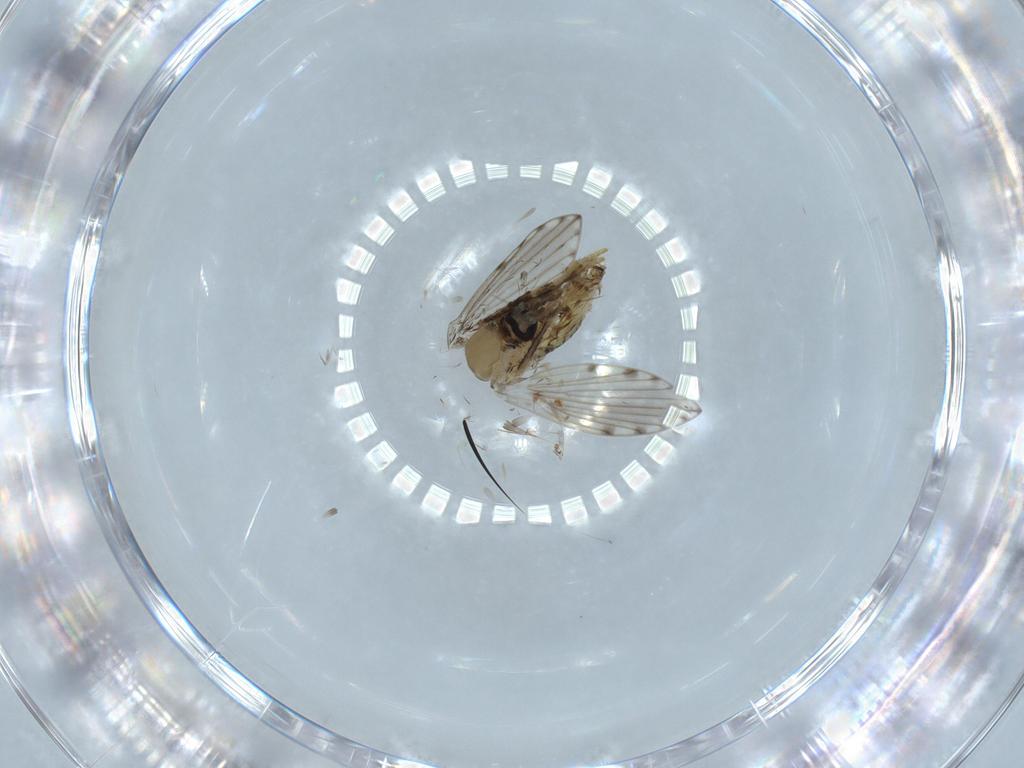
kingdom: Animalia
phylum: Arthropoda
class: Insecta
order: Diptera
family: Psychodidae
